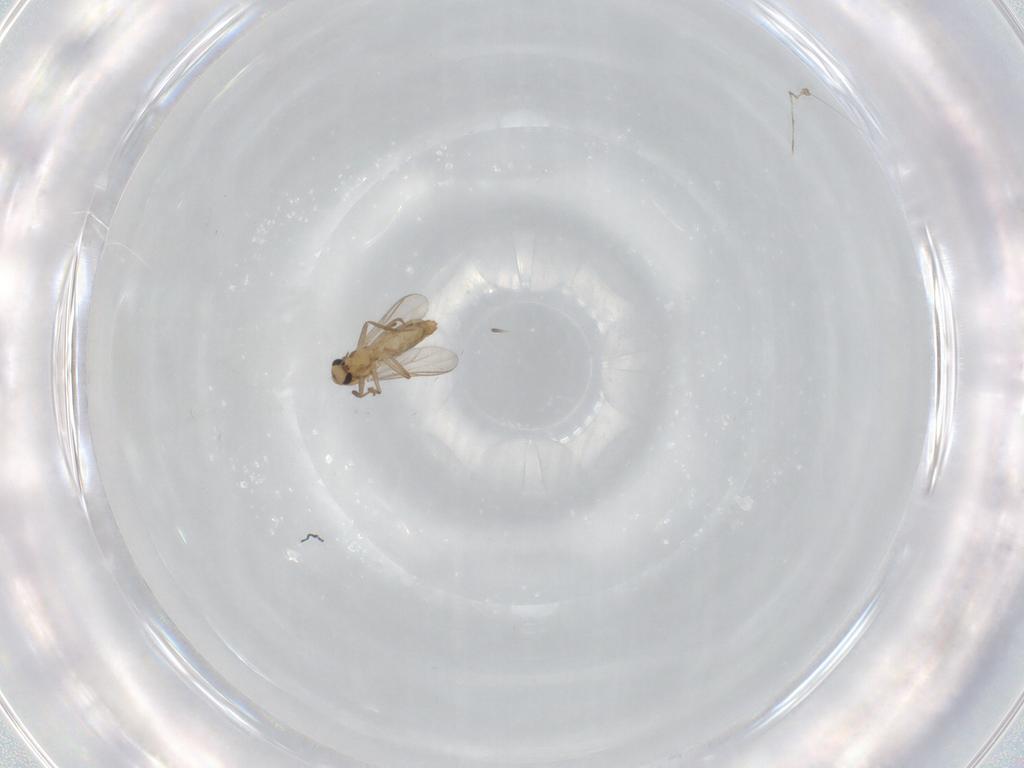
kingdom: Animalia
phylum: Arthropoda
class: Insecta
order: Diptera
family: Chironomidae
